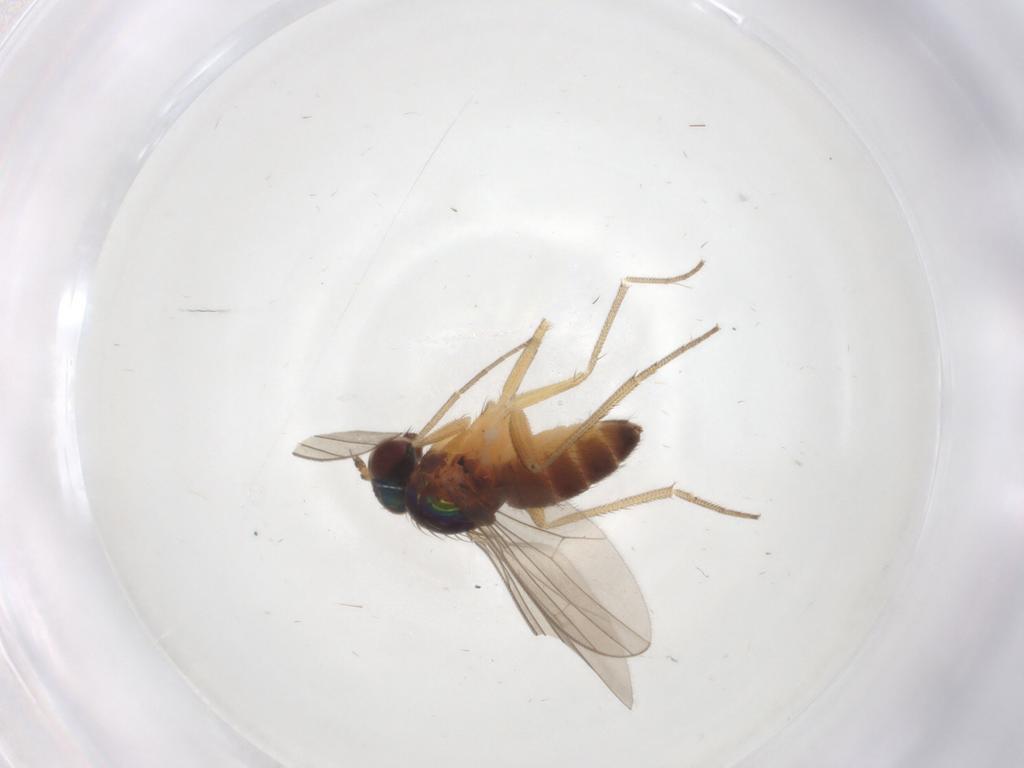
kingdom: Animalia
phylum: Arthropoda
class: Insecta
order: Diptera
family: Dolichopodidae
